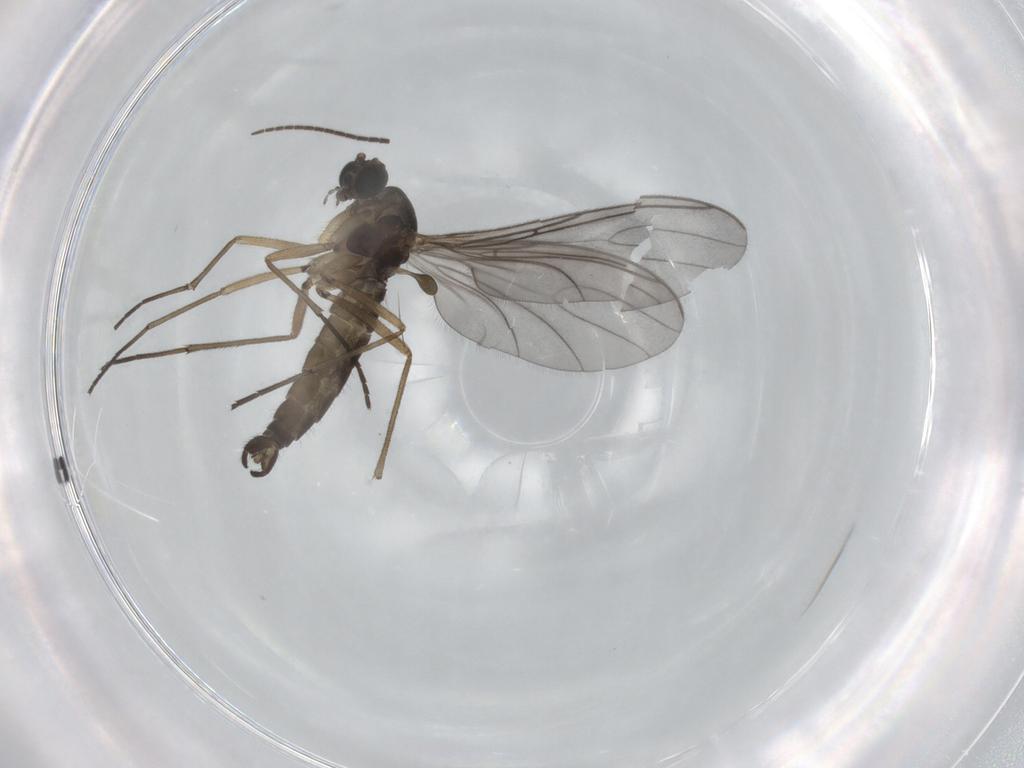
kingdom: Animalia
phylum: Arthropoda
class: Insecta
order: Diptera
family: Sciaridae
